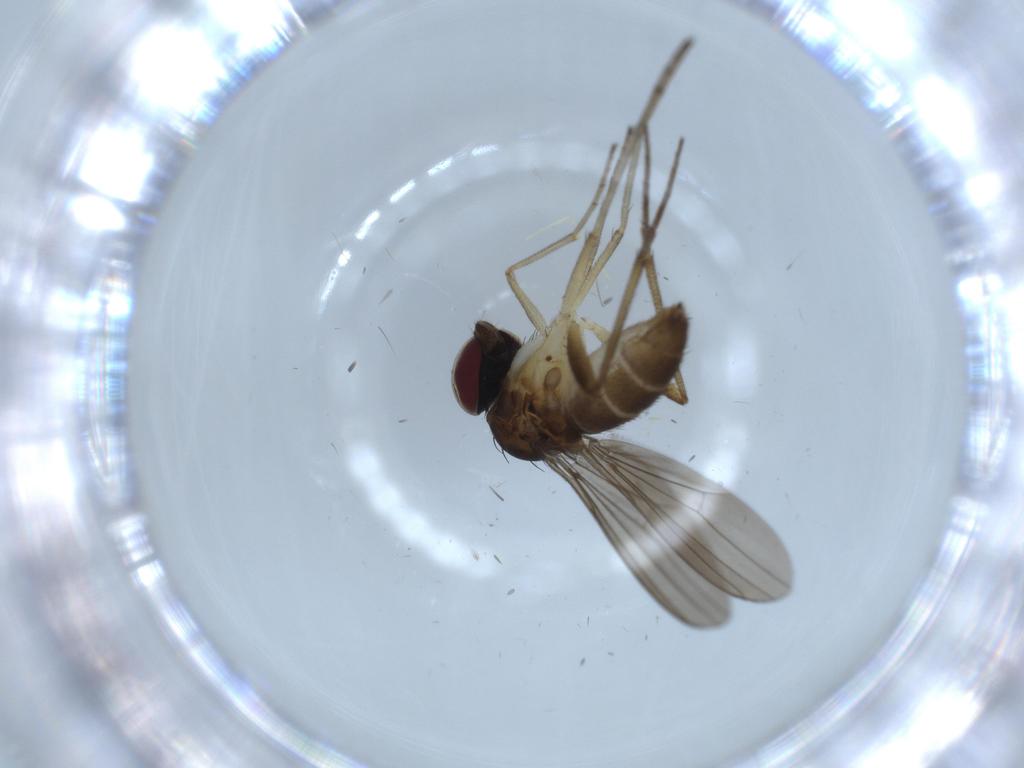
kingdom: Animalia
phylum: Arthropoda
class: Insecta
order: Diptera
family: Dolichopodidae
